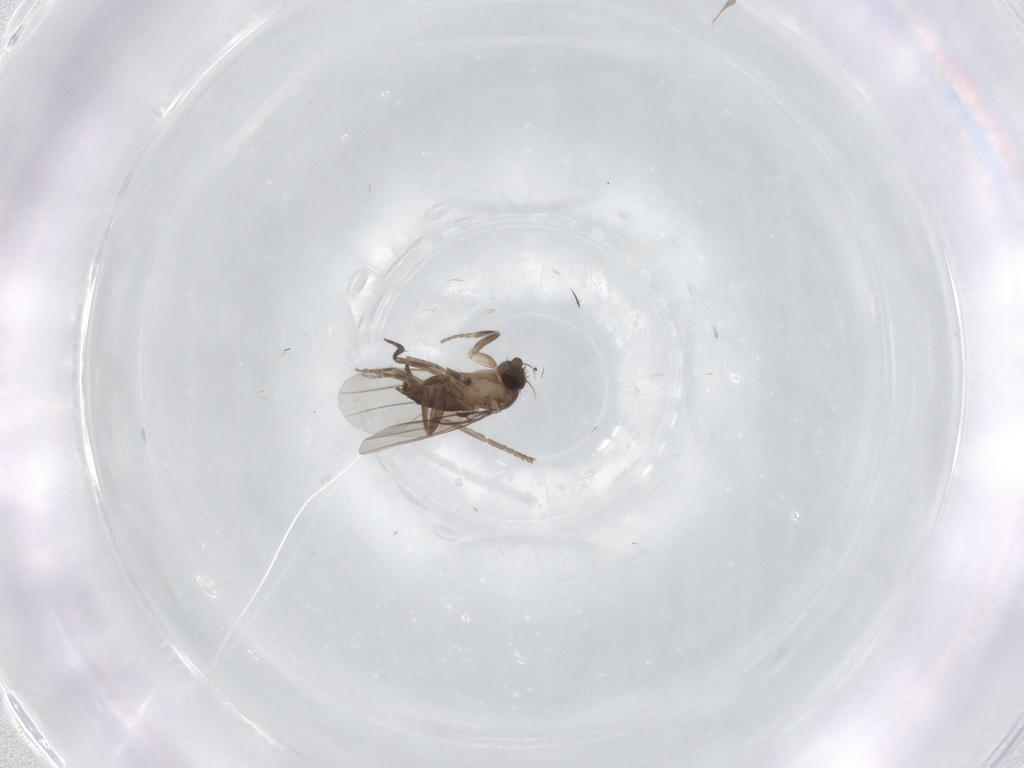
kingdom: Animalia
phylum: Arthropoda
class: Insecta
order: Diptera
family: Psychodidae
